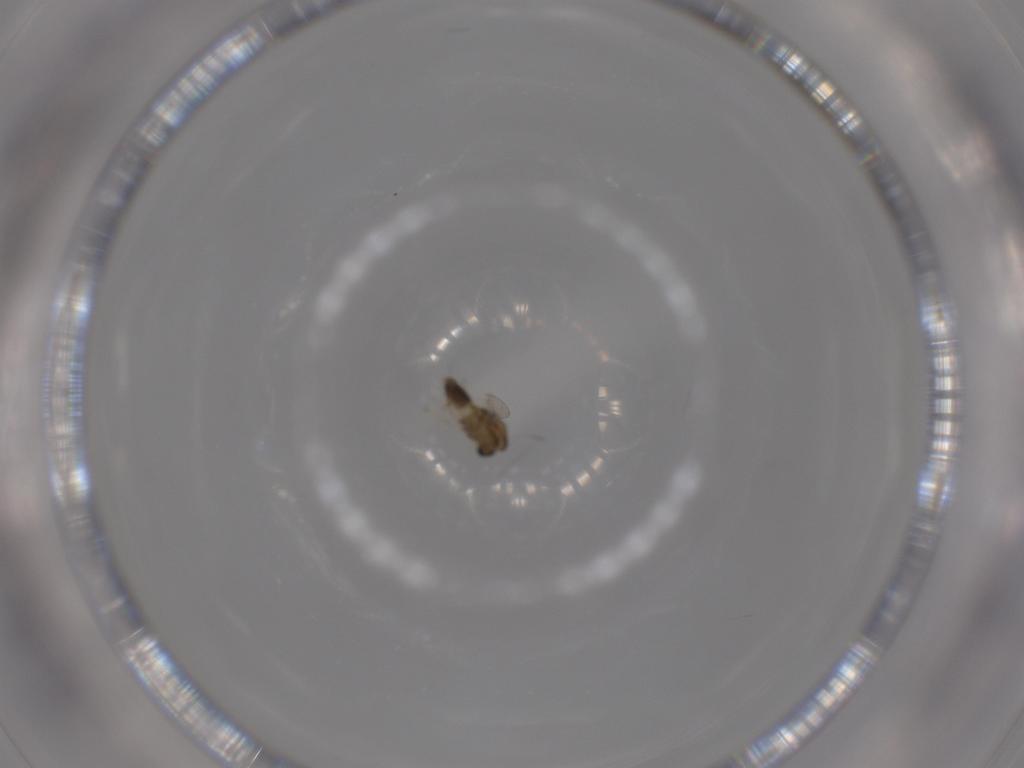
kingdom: Animalia
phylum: Arthropoda
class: Insecta
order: Diptera
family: Chironomidae
